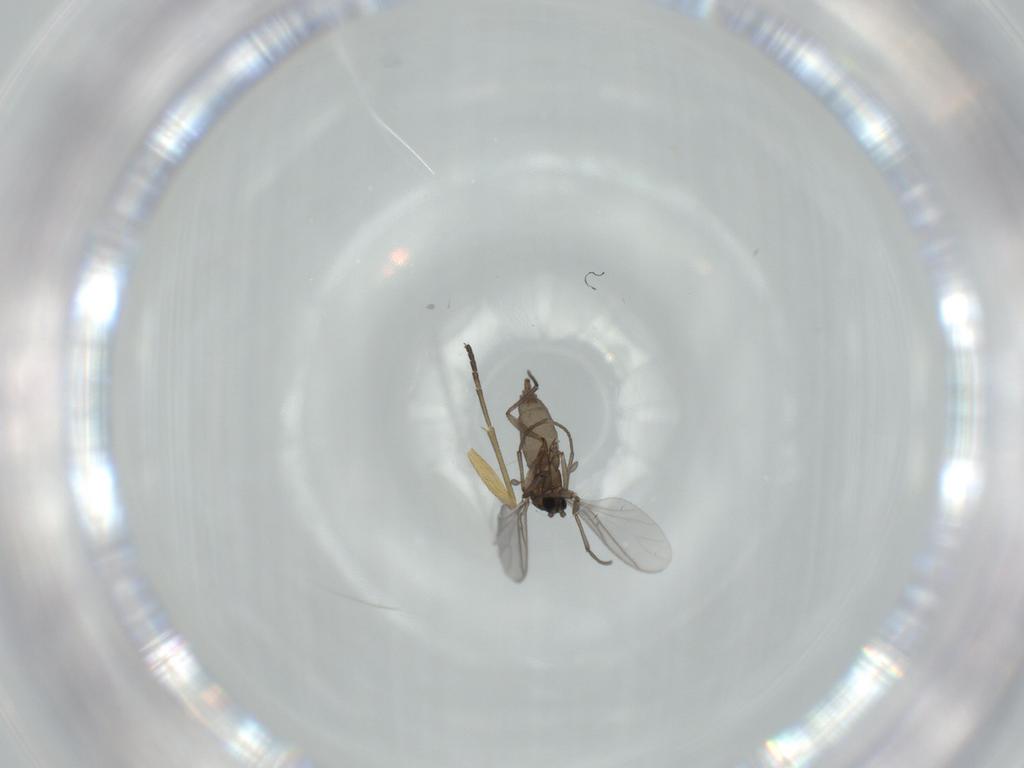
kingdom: Animalia
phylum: Arthropoda
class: Insecta
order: Diptera
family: Sciaridae
